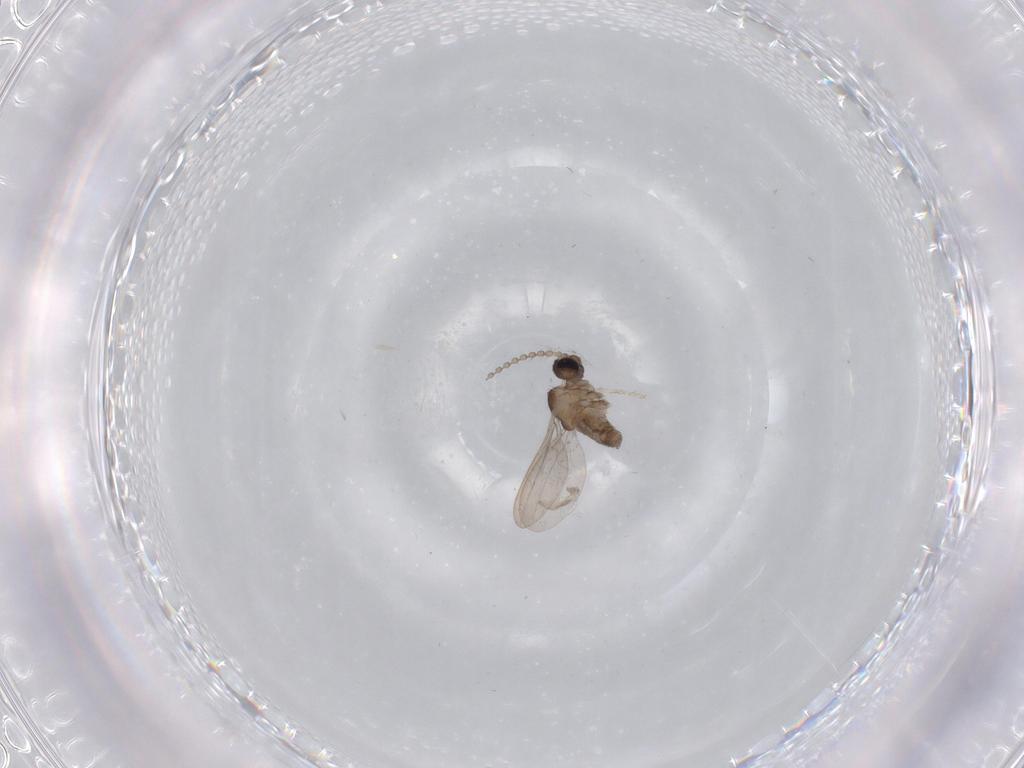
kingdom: Animalia
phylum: Arthropoda
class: Insecta
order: Diptera
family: Chironomidae
